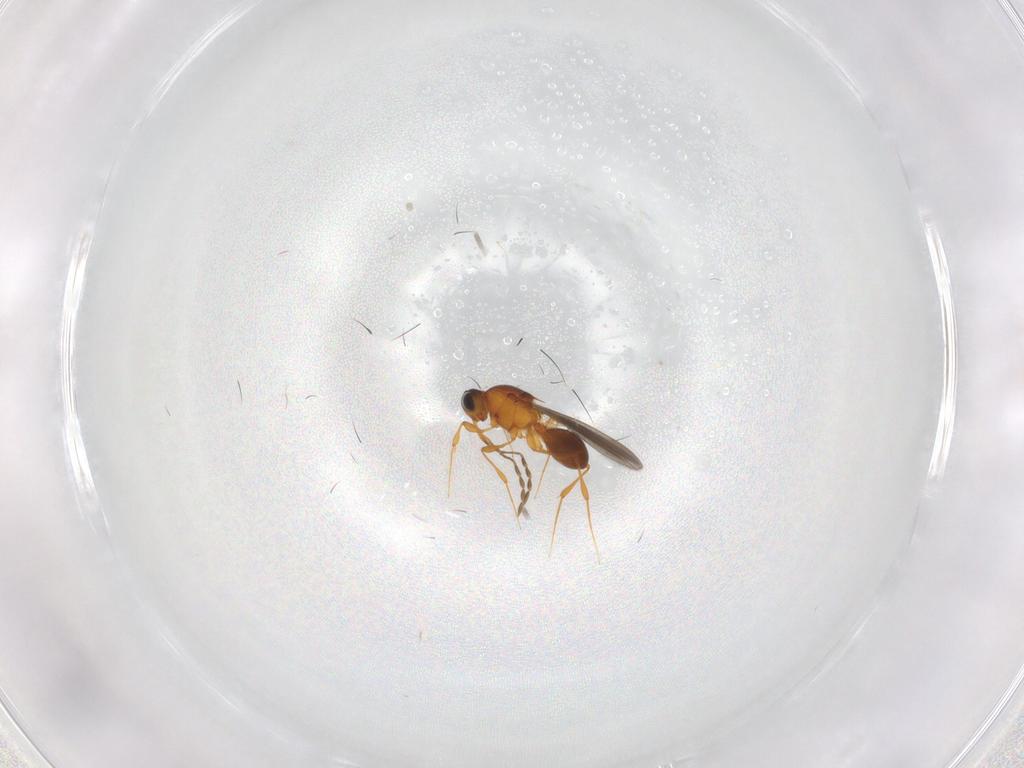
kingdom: Animalia
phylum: Arthropoda
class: Insecta
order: Hymenoptera
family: Platygastridae
